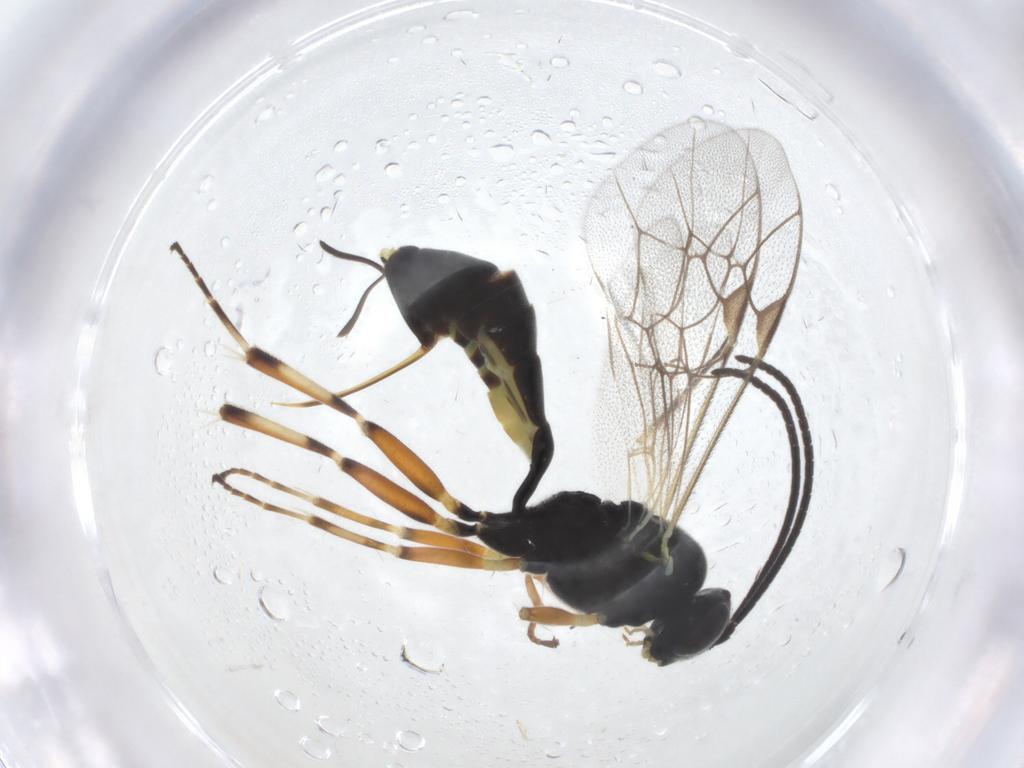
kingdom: Animalia
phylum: Arthropoda
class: Insecta
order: Hymenoptera
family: Ichneumonidae
